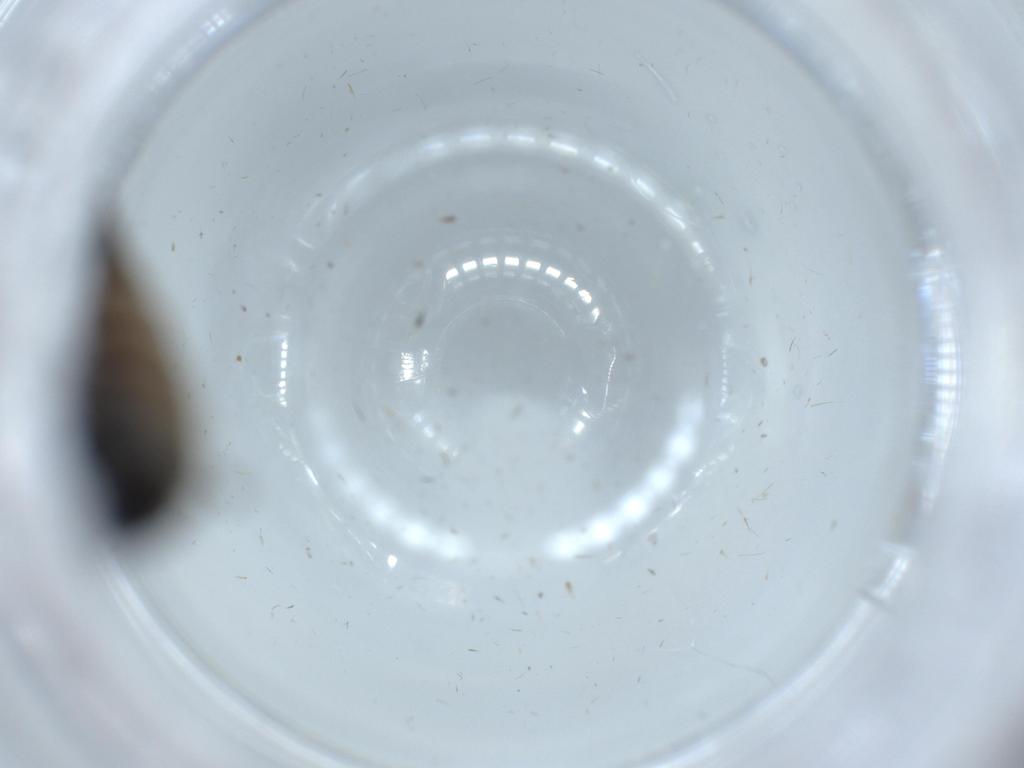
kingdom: Animalia
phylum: Arthropoda
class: Insecta
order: Diptera
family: Sciaridae
